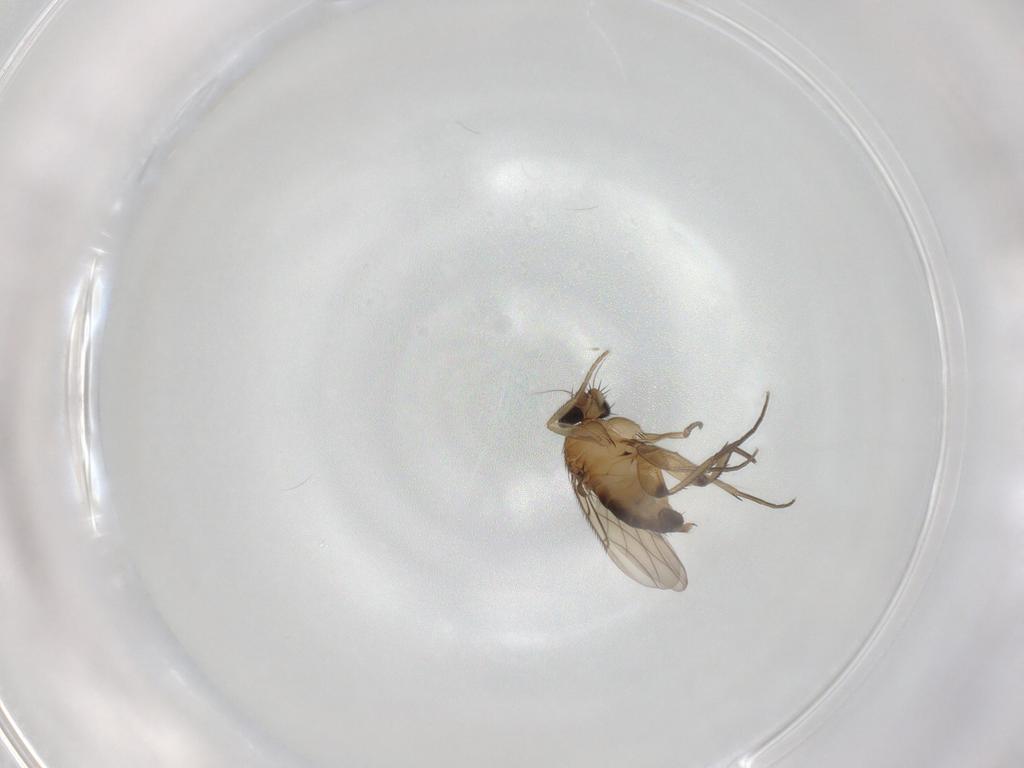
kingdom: Animalia
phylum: Arthropoda
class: Insecta
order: Diptera
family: Phoridae
